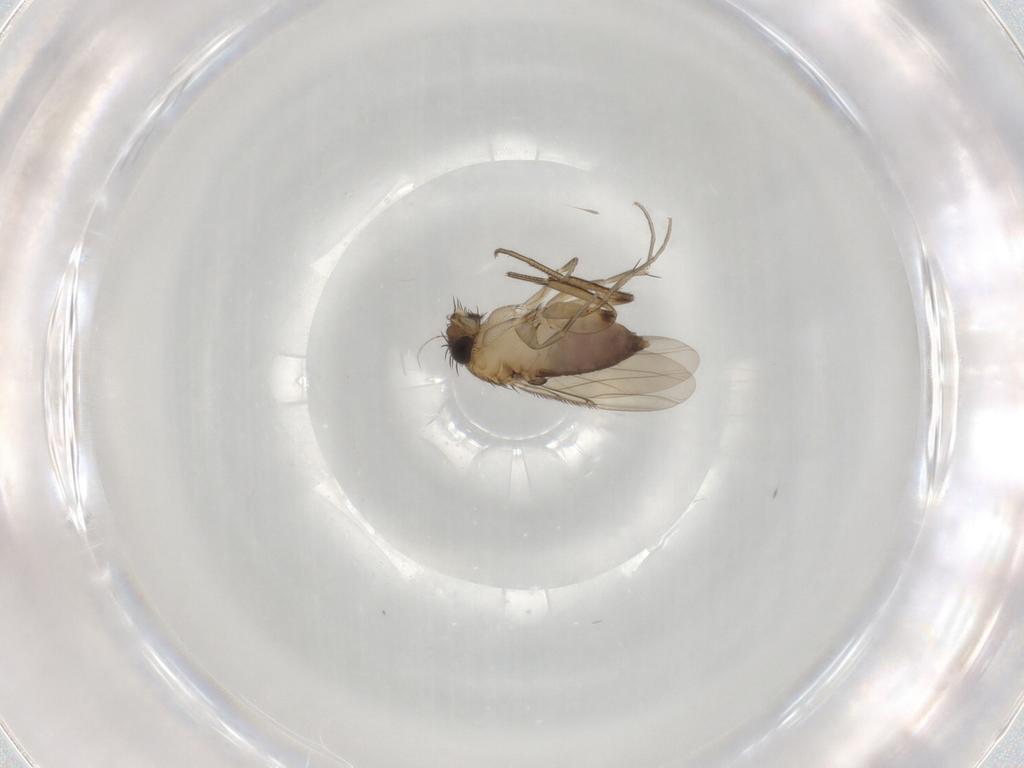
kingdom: Animalia
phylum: Arthropoda
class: Insecta
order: Diptera
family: Phoridae
